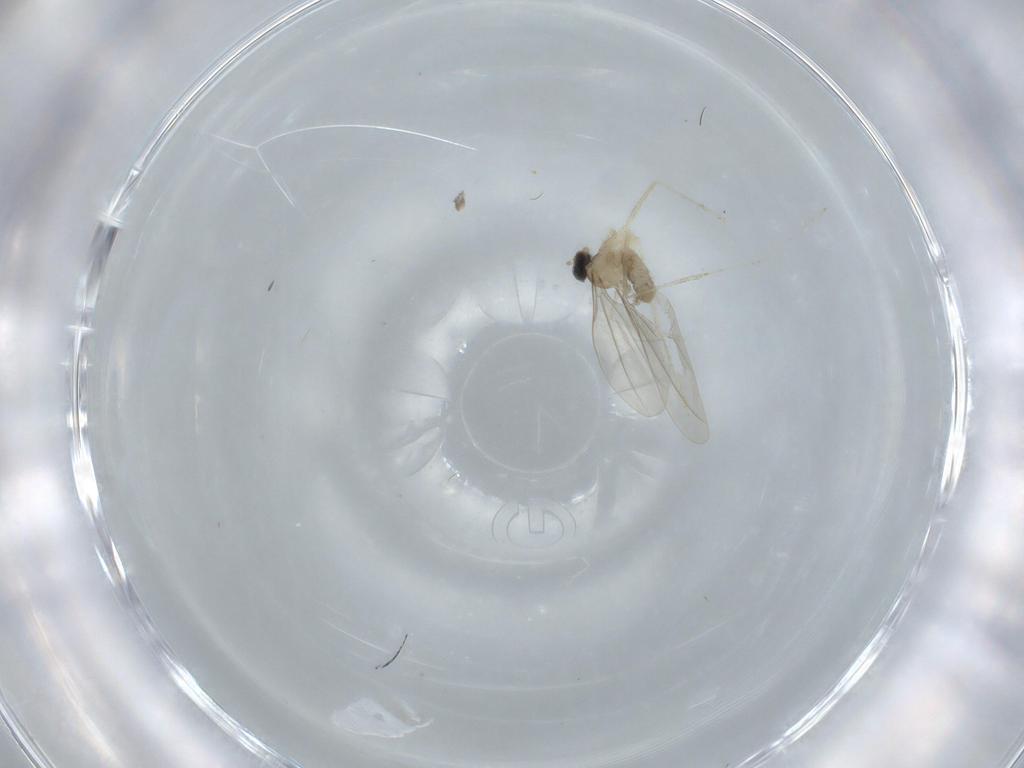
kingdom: Animalia
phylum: Arthropoda
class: Insecta
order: Diptera
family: Cecidomyiidae
